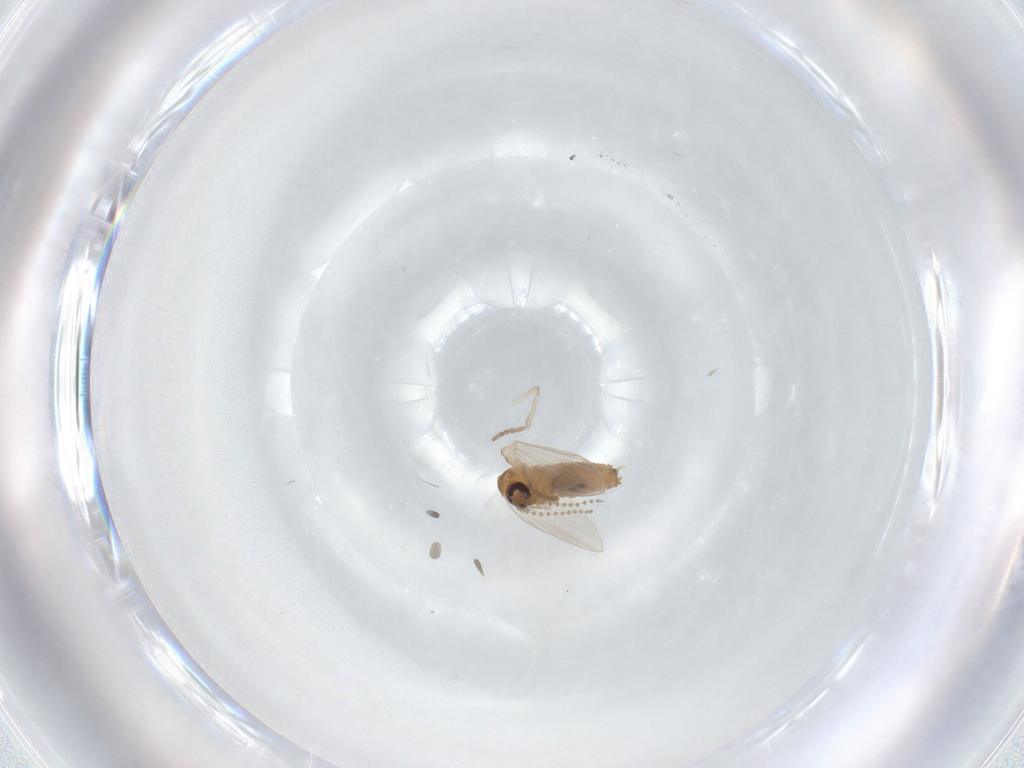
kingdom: Animalia
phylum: Arthropoda
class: Insecta
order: Diptera
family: Psychodidae
